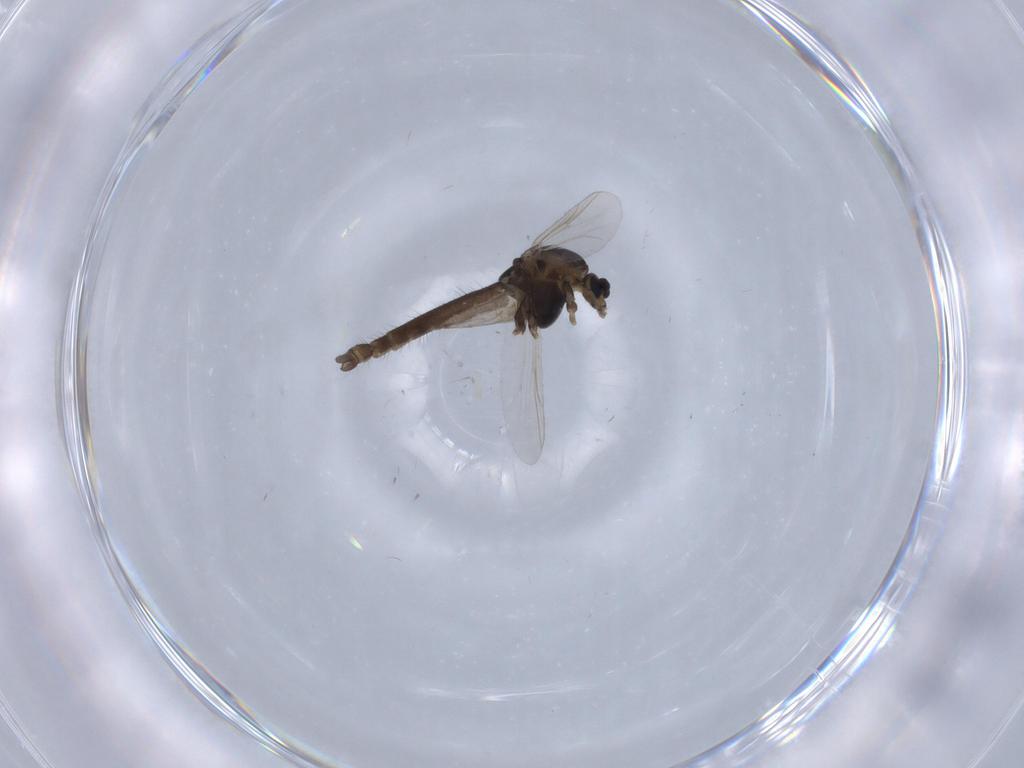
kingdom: Animalia
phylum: Arthropoda
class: Insecta
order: Diptera
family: Chironomidae
